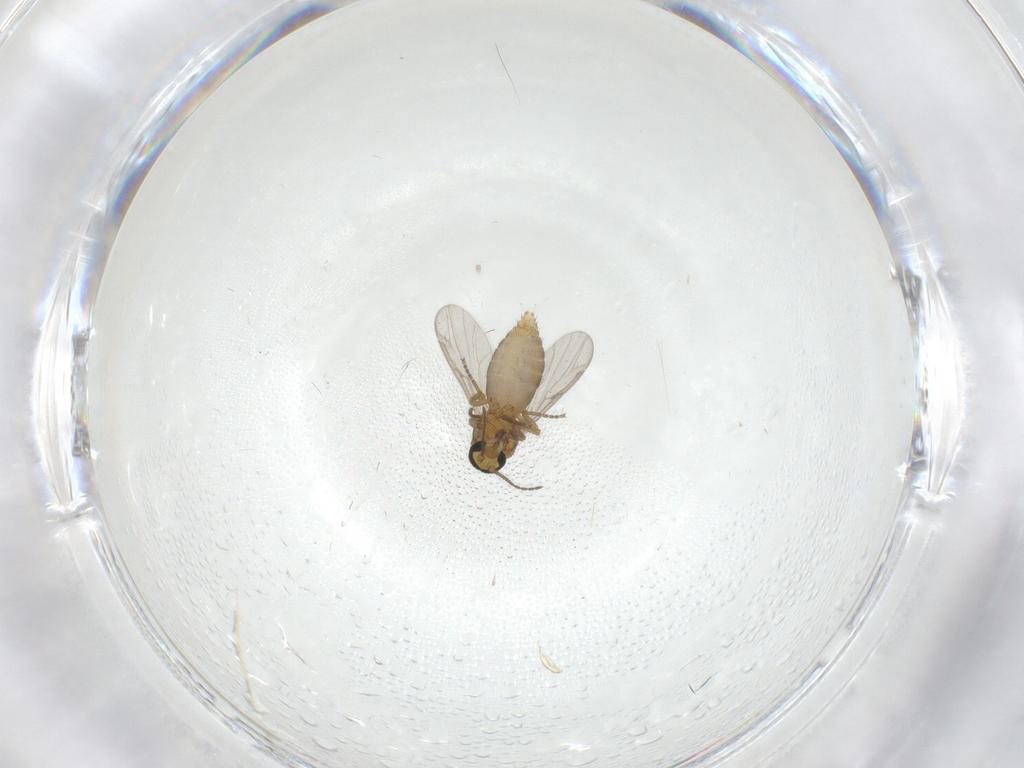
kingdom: Animalia
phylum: Arthropoda
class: Insecta
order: Diptera
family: Ceratopogonidae
